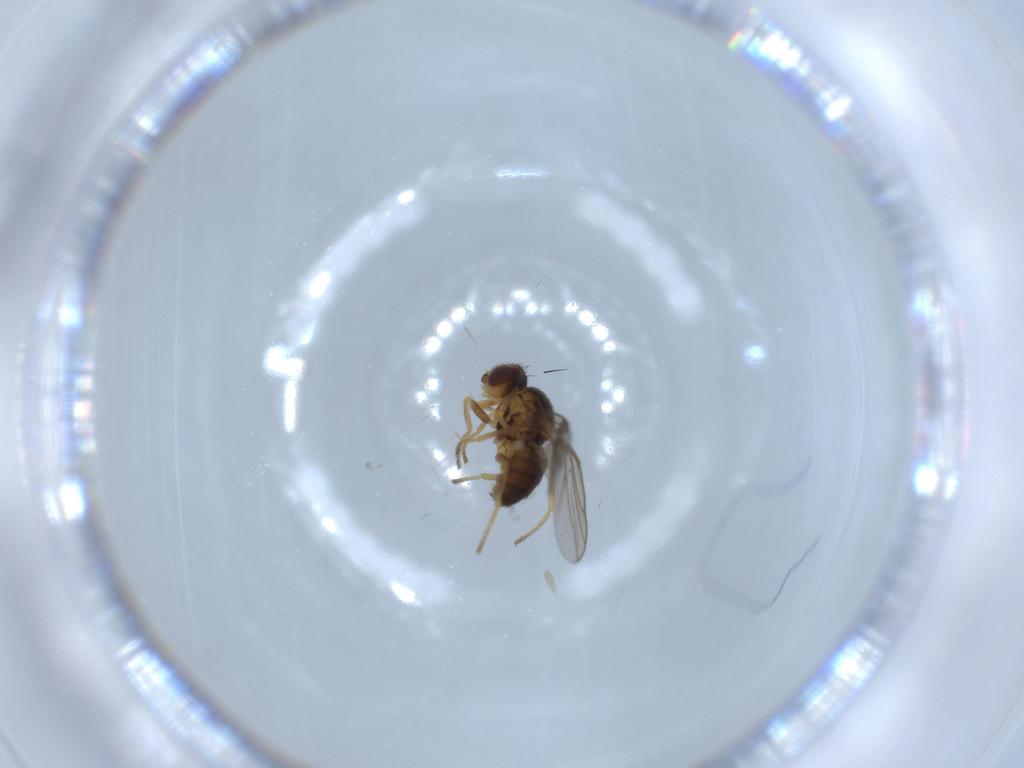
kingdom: Animalia
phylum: Arthropoda
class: Insecta
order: Diptera
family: Chloropidae
